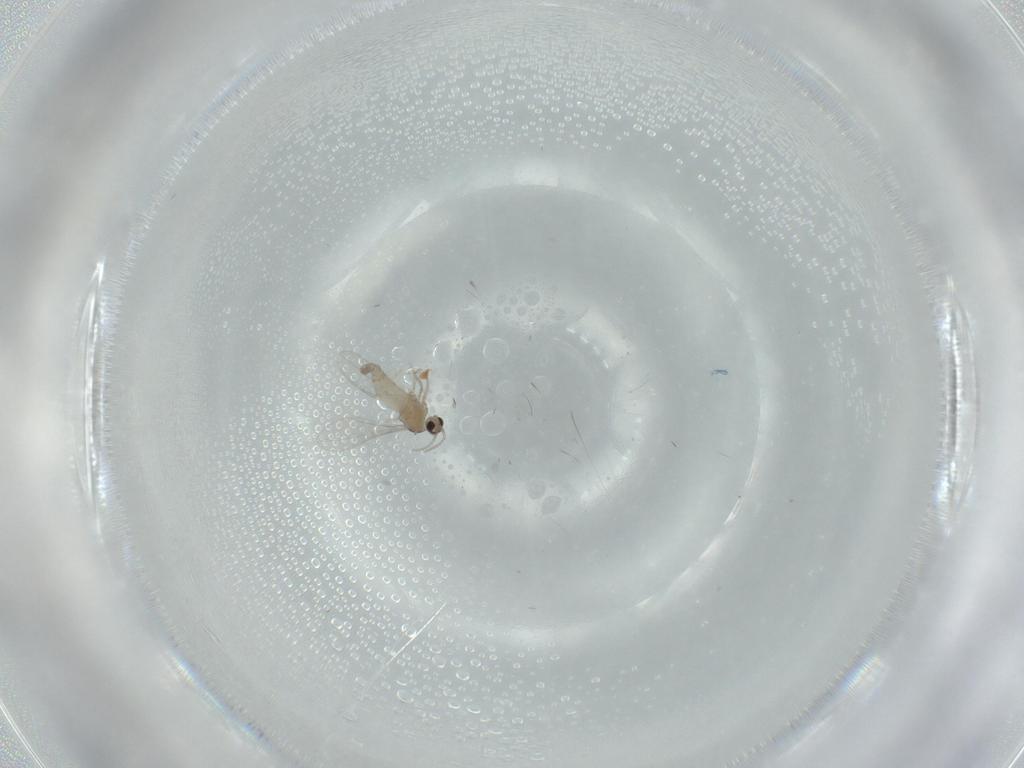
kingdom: Animalia
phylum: Arthropoda
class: Insecta
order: Diptera
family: Cecidomyiidae
